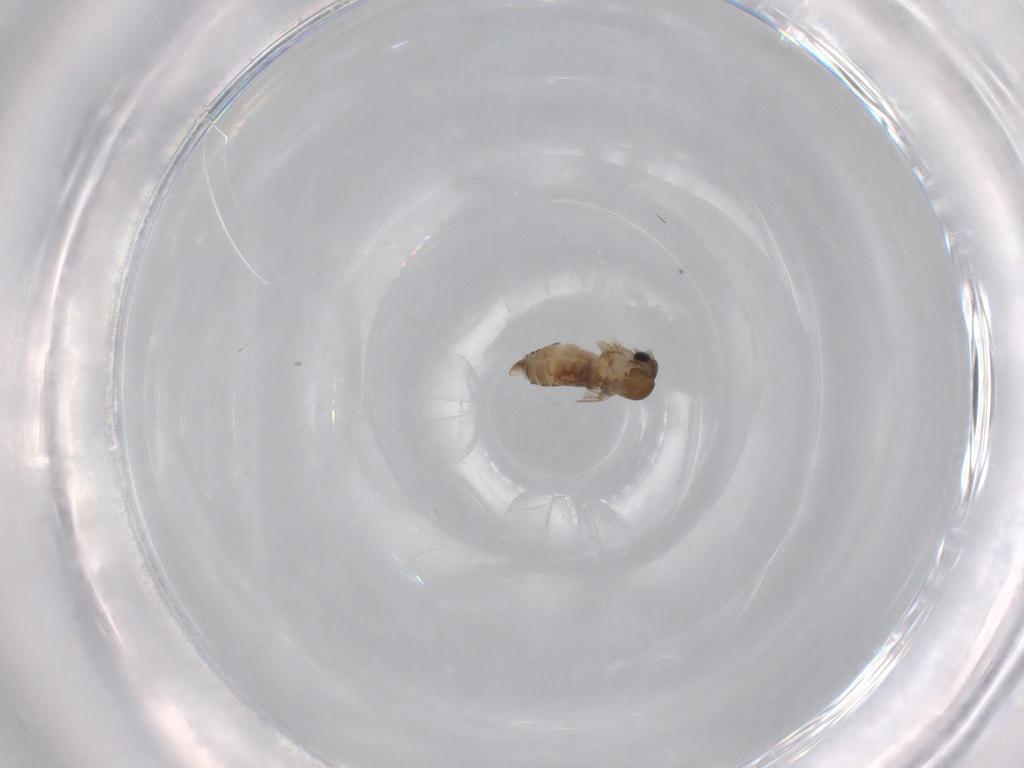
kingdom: Animalia
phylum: Arthropoda
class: Insecta
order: Diptera
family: Psychodidae
